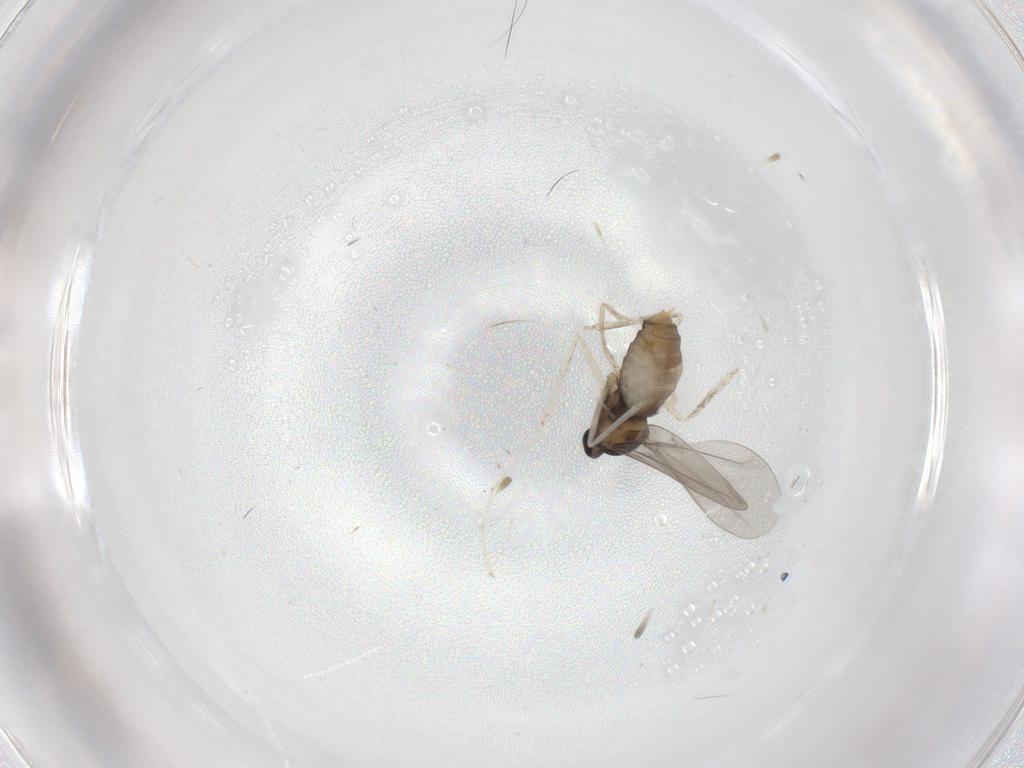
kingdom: Animalia
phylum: Arthropoda
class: Insecta
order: Diptera
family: Cecidomyiidae
